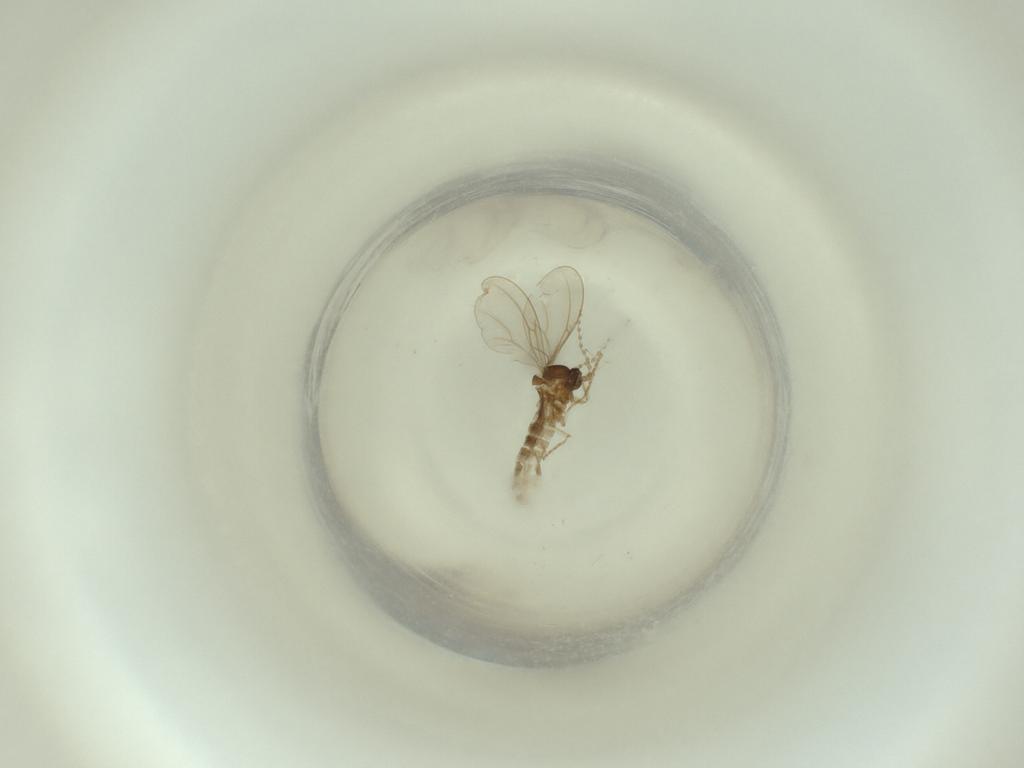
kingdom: Animalia
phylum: Arthropoda
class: Insecta
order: Diptera
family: Cecidomyiidae
